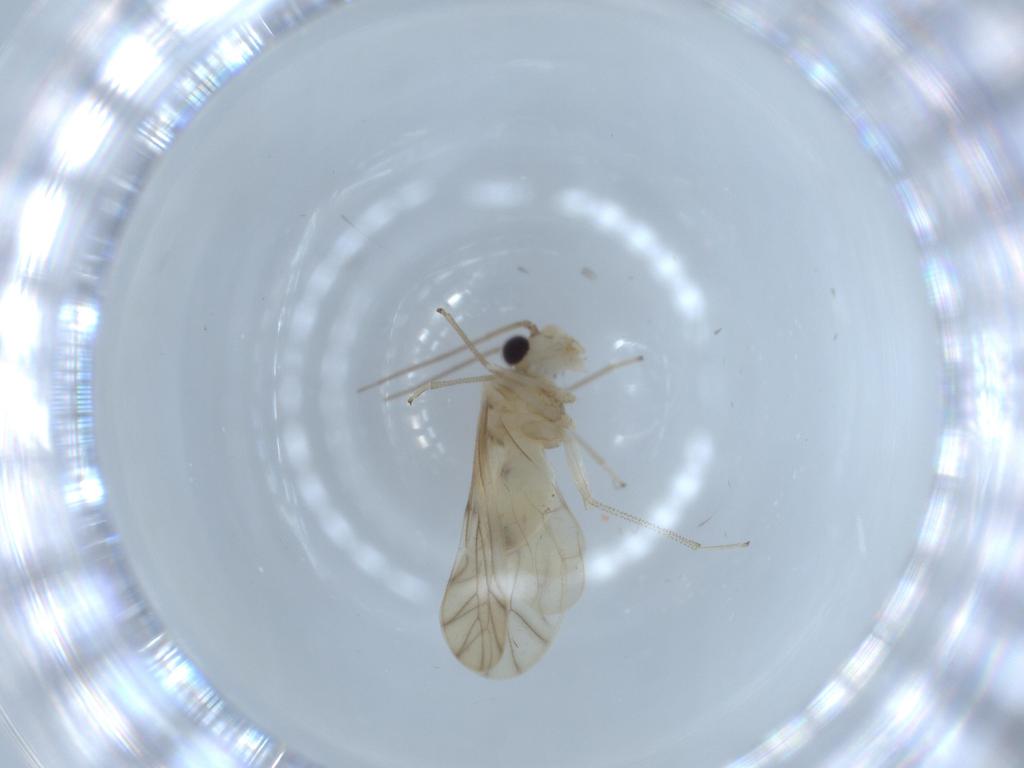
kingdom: Animalia
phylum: Arthropoda
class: Insecta
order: Psocodea
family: Caeciliusidae
